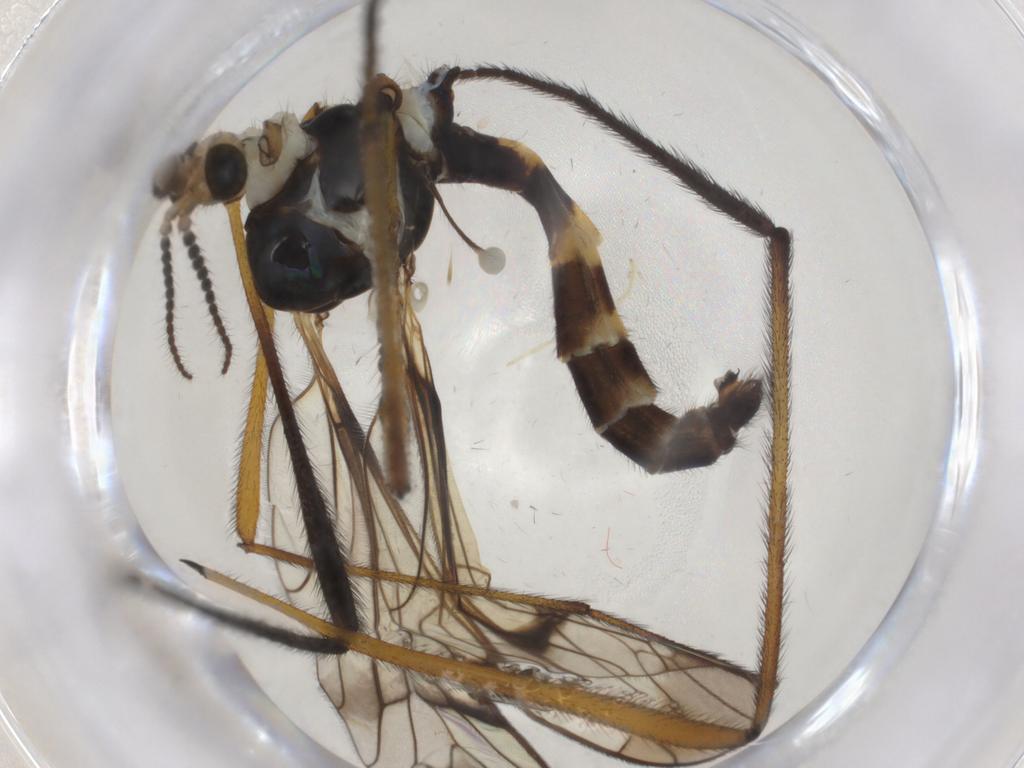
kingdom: Animalia
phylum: Arthropoda
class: Insecta
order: Diptera
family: Limoniidae
